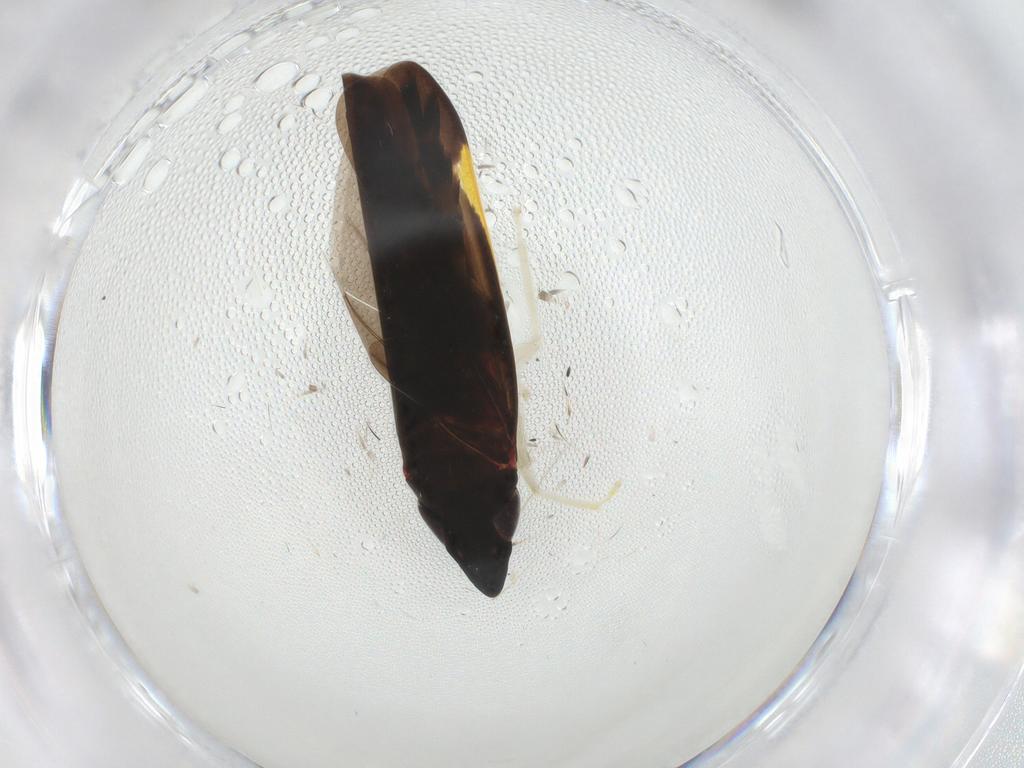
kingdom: Animalia
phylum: Arthropoda
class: Insecta
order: Hemiptera
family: Cicadellidae
